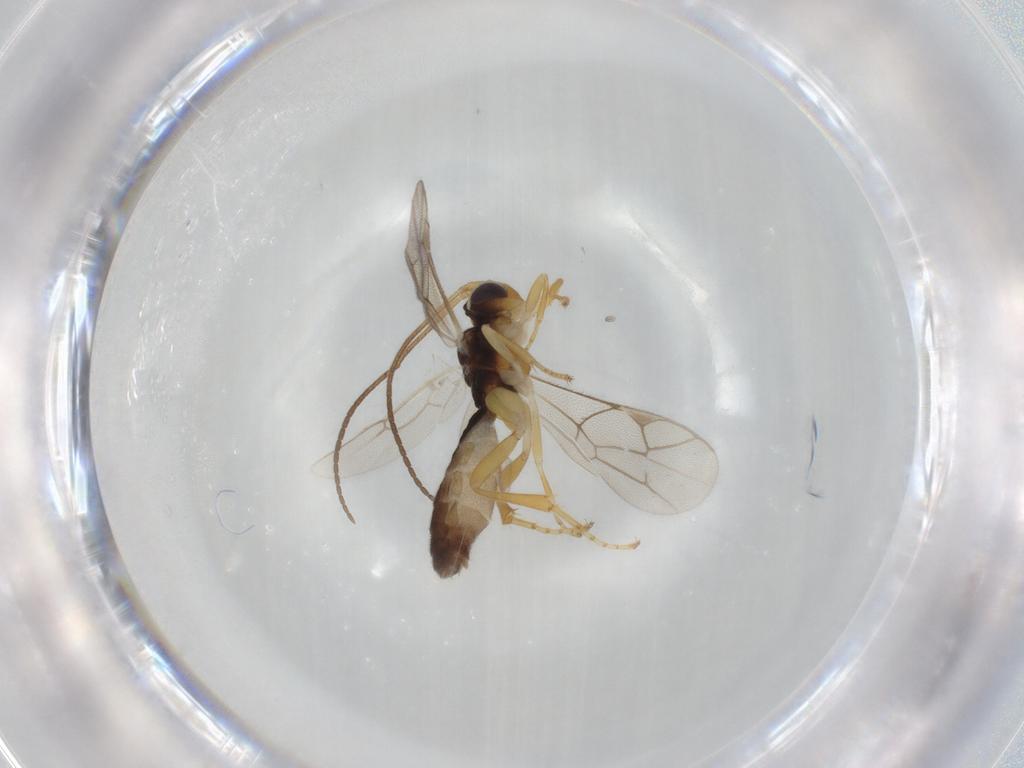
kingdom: Animalia
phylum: Arthropoda
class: Insecta
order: Hymenoptera
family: Ichneumonidae
